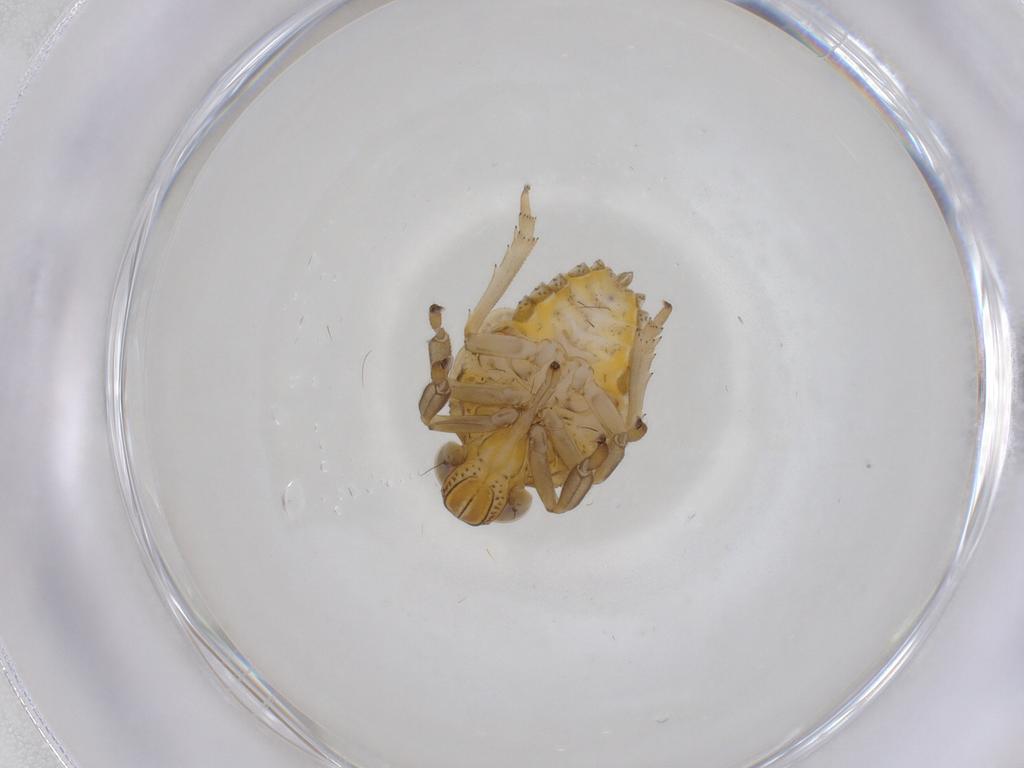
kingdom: Animalia
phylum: Arthropoda
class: Insecta
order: Hemiptera
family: Issidae
